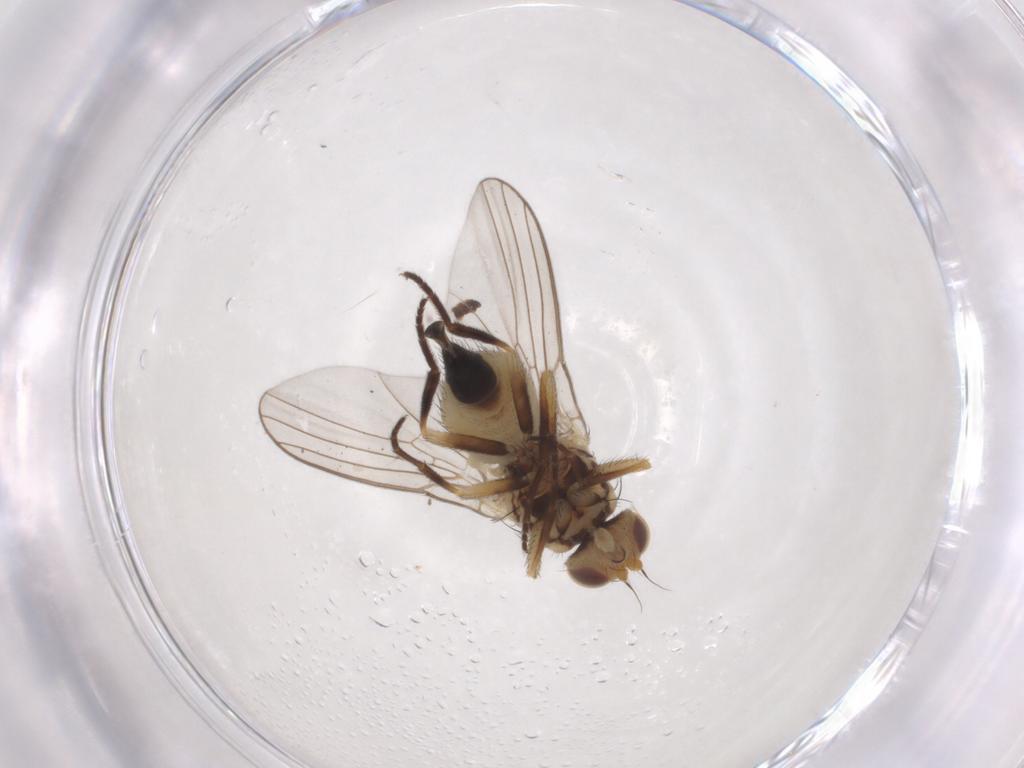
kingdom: Animalia
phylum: Arthropoda
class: Insecta
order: Diptera
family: Agromyzidae
